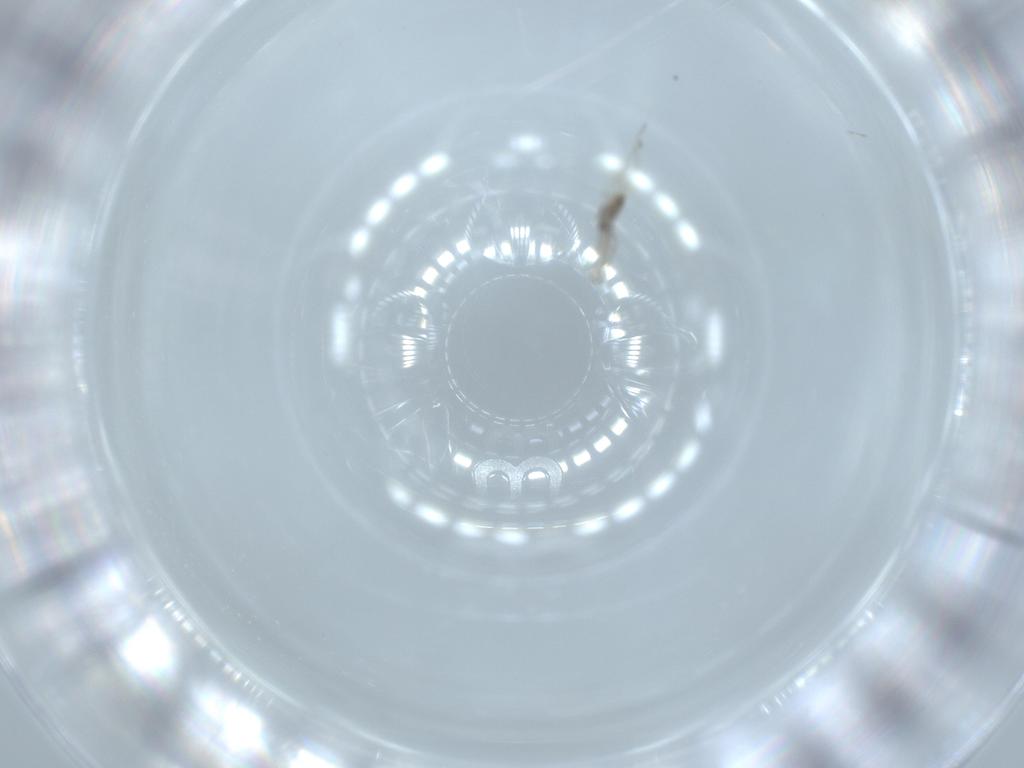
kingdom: Animalia
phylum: Arthropoda
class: Insecta
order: Diptera
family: Cecidomyiidae
